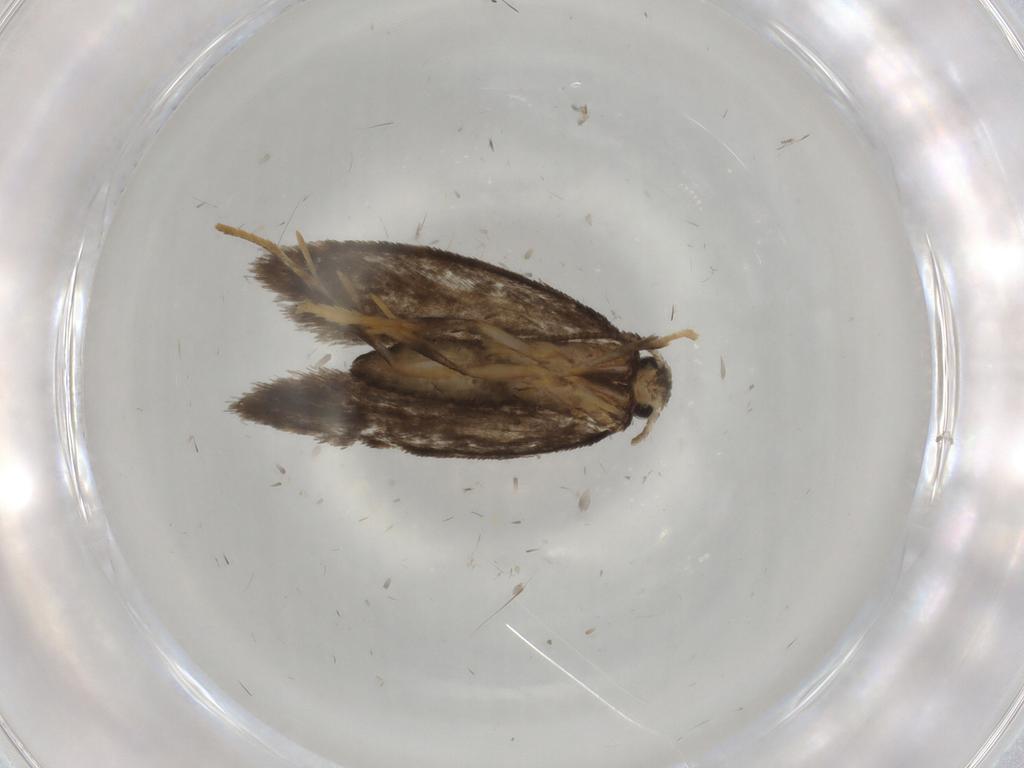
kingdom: Animalia
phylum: Arthropoda
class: Insecta
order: Lepidoptera
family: Psychidae
